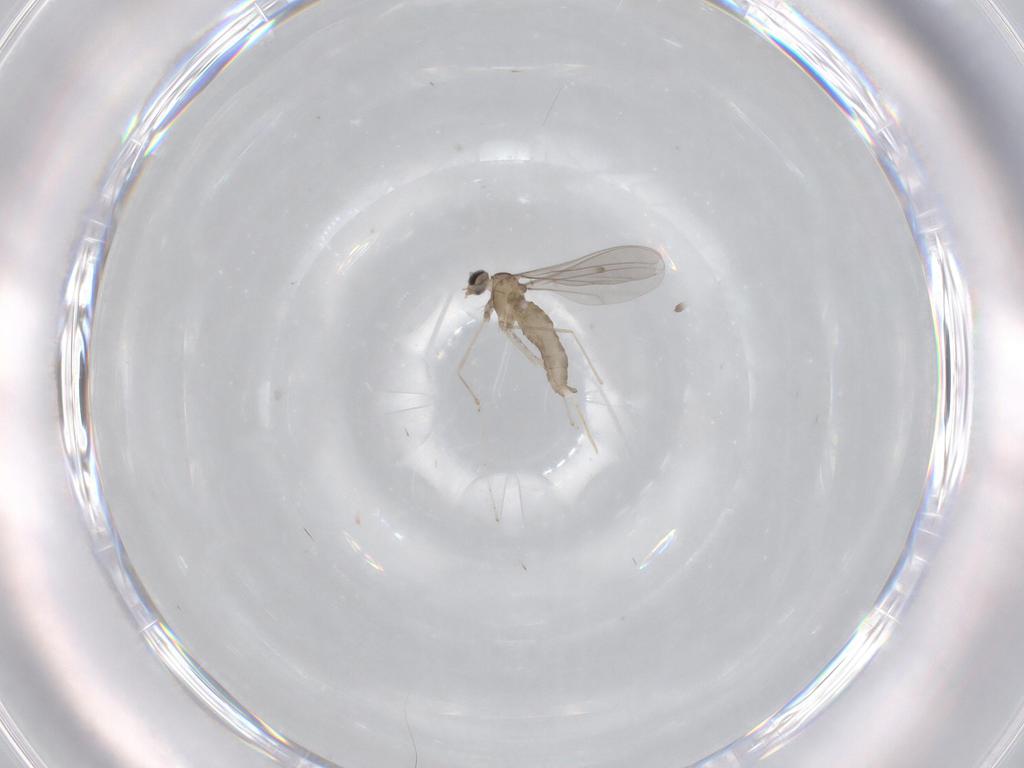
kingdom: Animalia
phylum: Arthropoda
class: Insecta
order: Diptera
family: Cecidomyiidae
